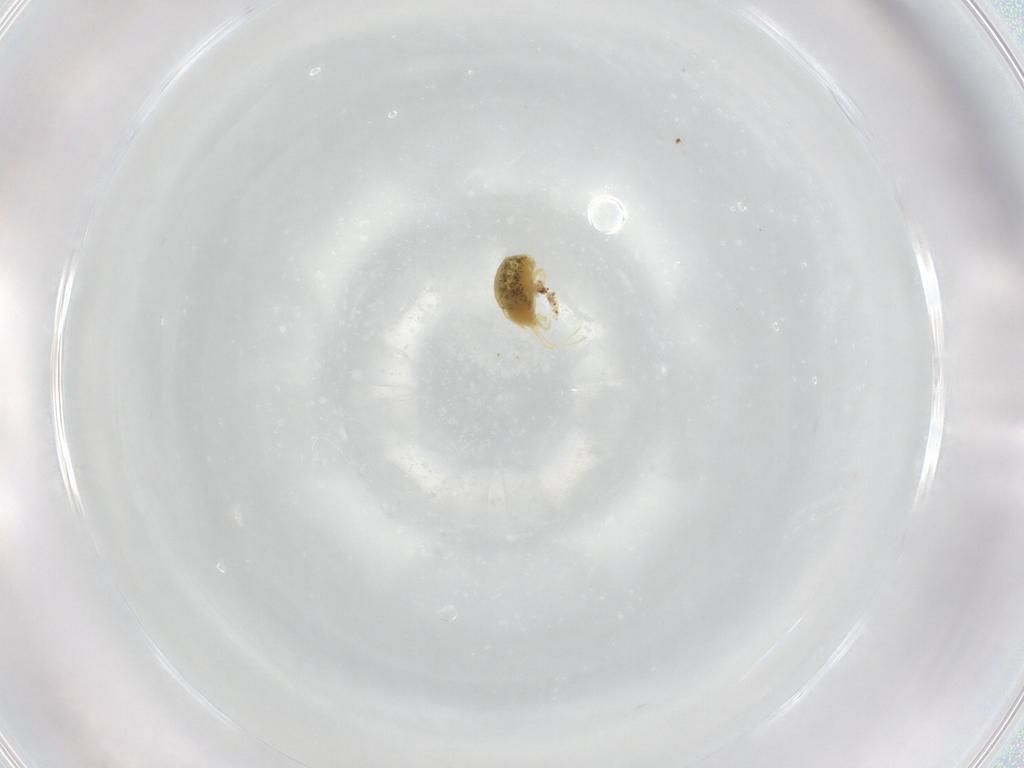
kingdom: Animalia
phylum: Arthropoda
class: Arachnida
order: Trombidiformes
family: Tetranychidae
